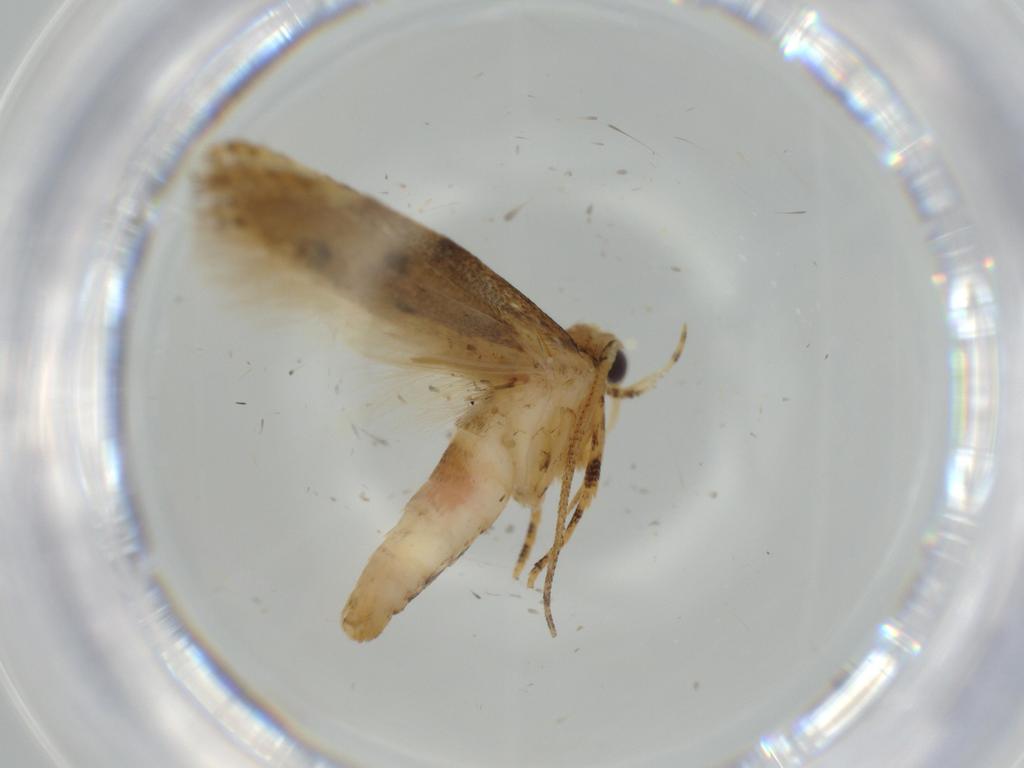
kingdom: Animalia
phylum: Arthropoda
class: Insecta
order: Lepidoptera
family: Gelechiidae
